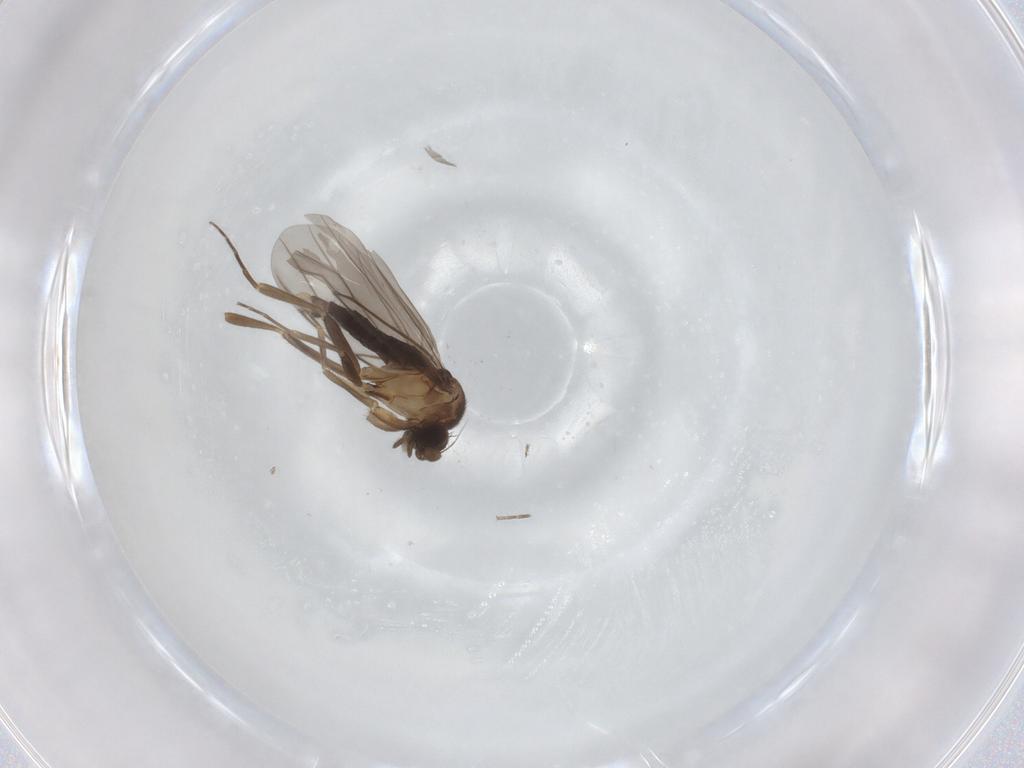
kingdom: Animalia
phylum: Arthropoda
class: Insecta
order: Diptera
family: Phoridae
